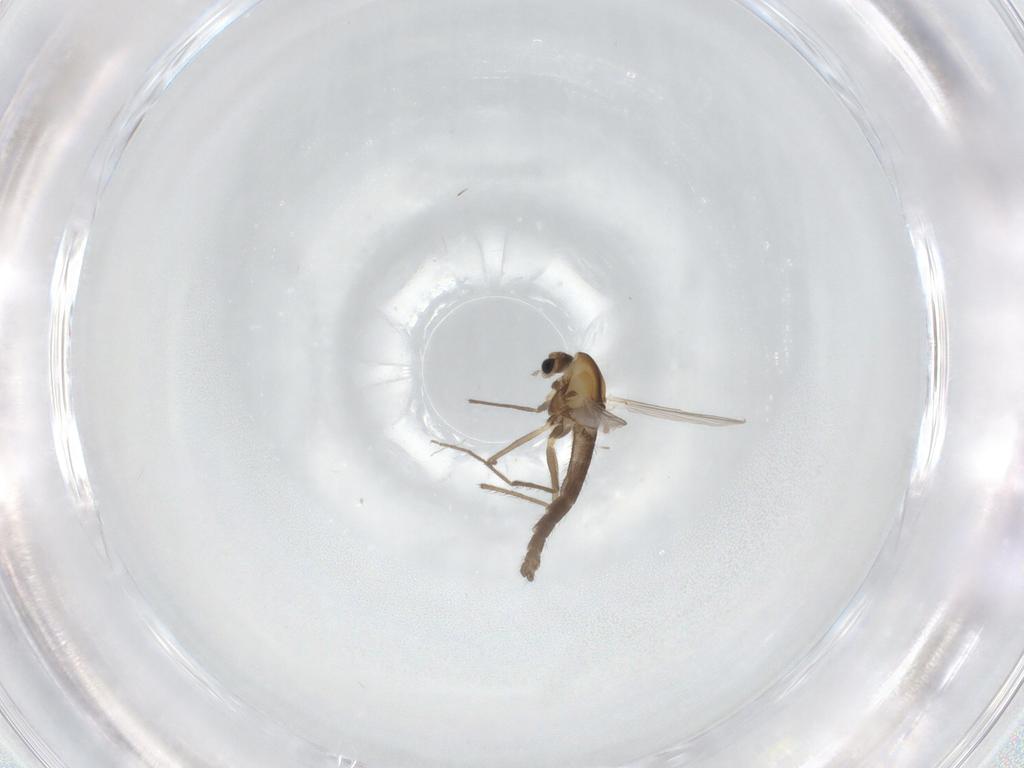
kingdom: Animalia
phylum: Arthropoda
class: Insecta
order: Diptera
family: Chironomidae
